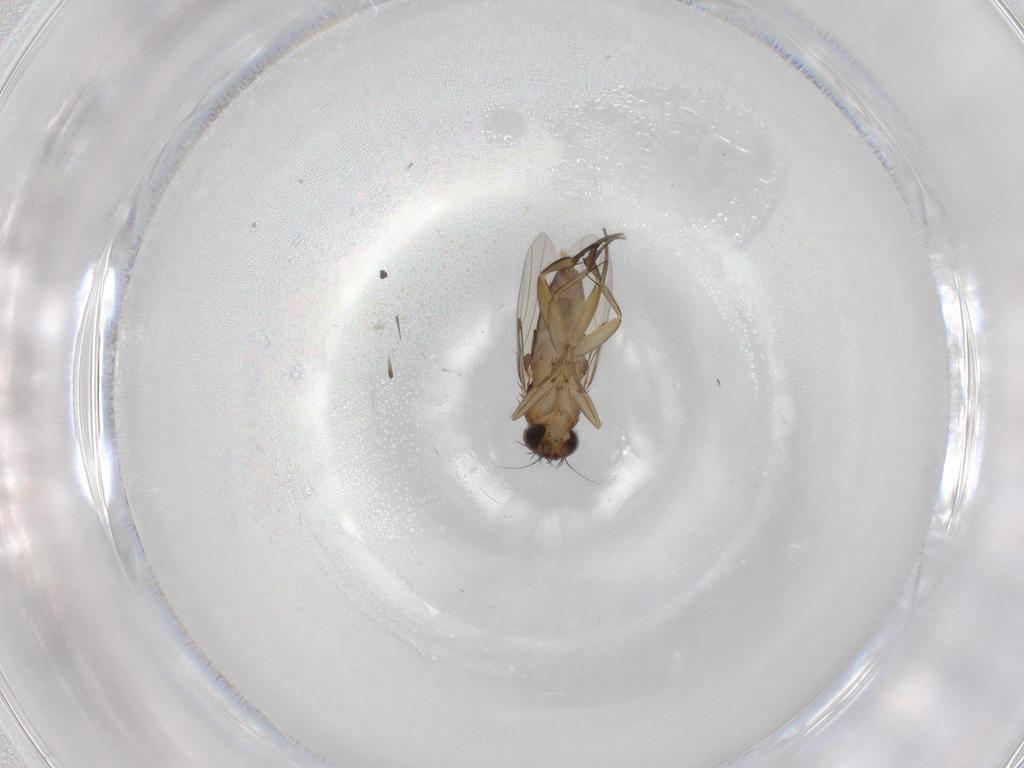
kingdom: Animalia
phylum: Arthropoda
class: Insecta
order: Diptera
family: Phoridae
